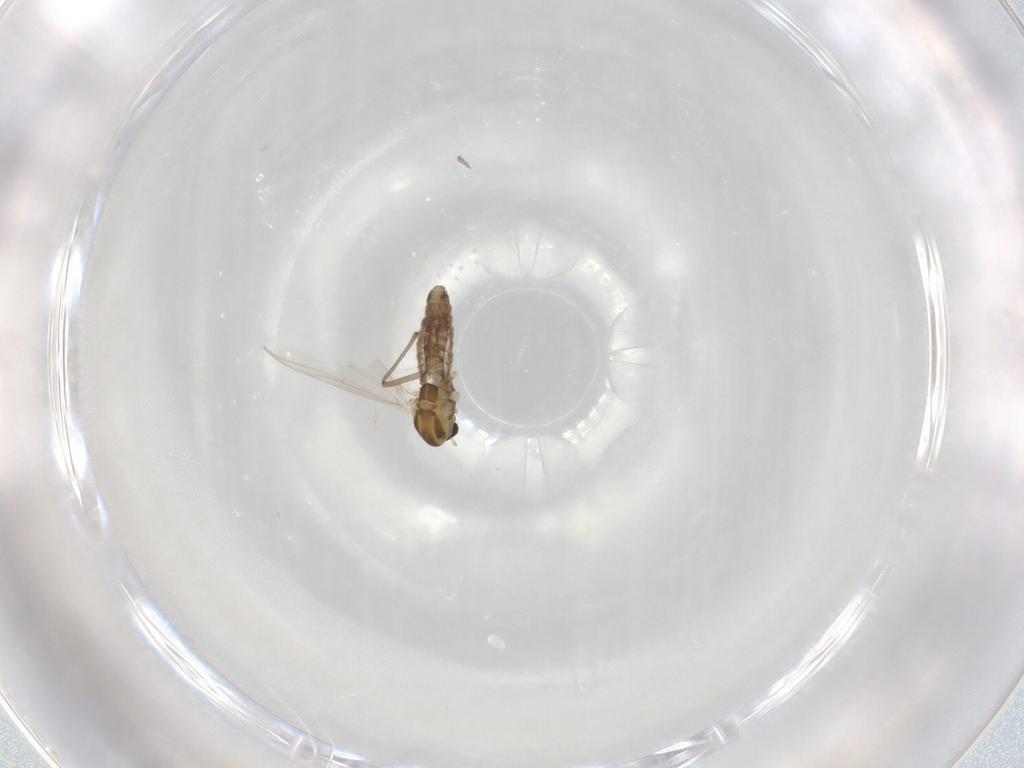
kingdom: Animalia
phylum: Arthropoda
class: Insecta
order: Diptera
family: Chironomidae
